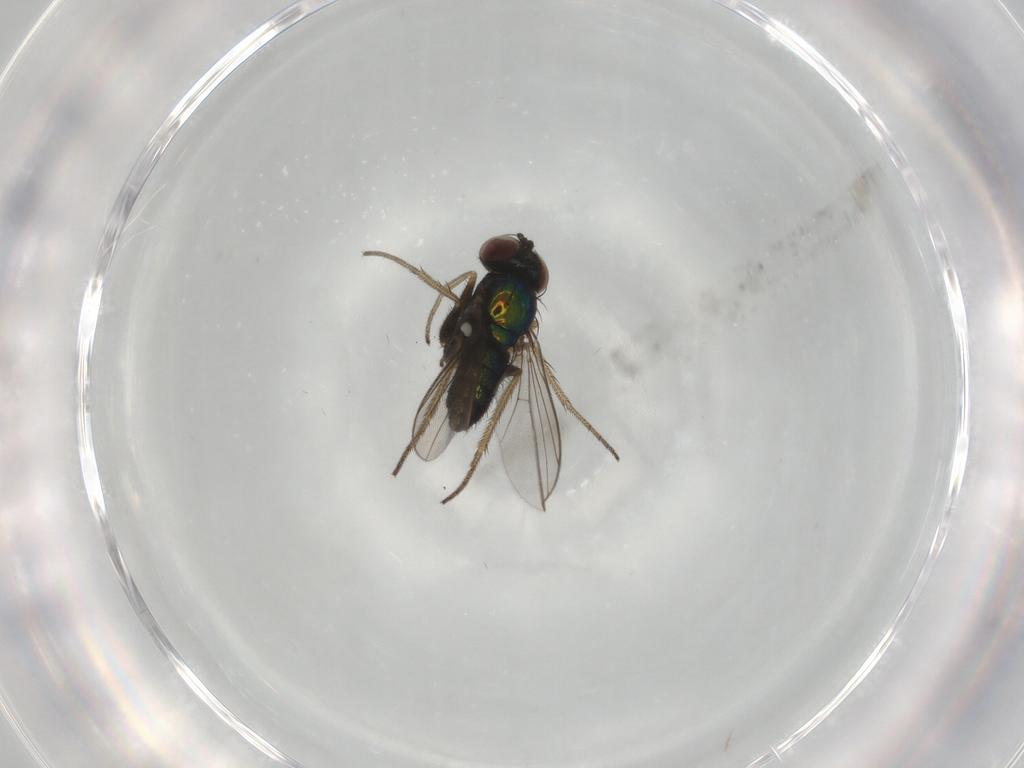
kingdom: Animalia
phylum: Arthropoda
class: Insecta
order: Diptera
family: Dolichopodidae
